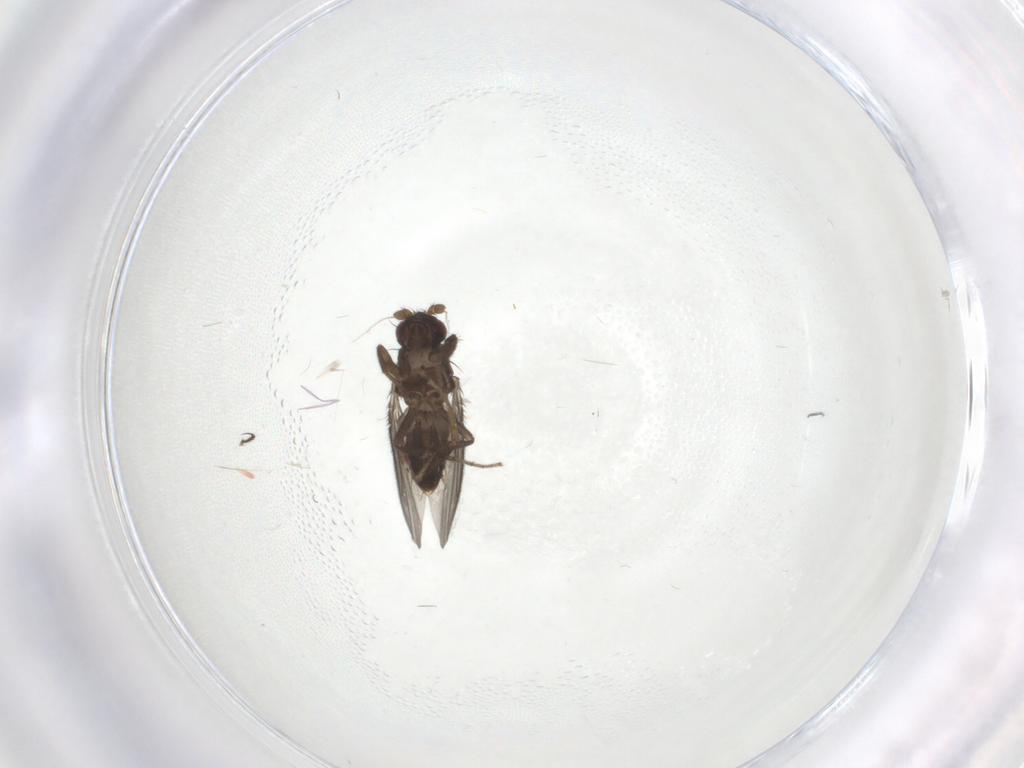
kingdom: Animalia
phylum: Arthropoda
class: Insecta
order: Diptera
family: Sphaeroceridae
